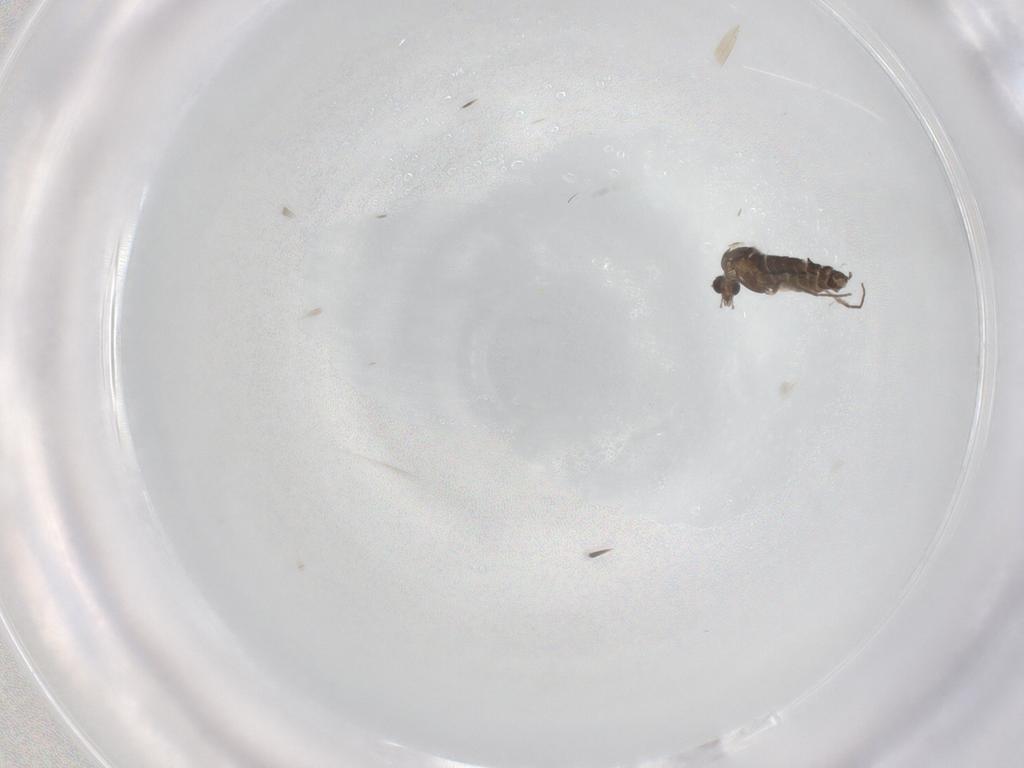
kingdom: Animalia
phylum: Arthropoda
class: Insecta
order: Diptera
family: Chironomidae
